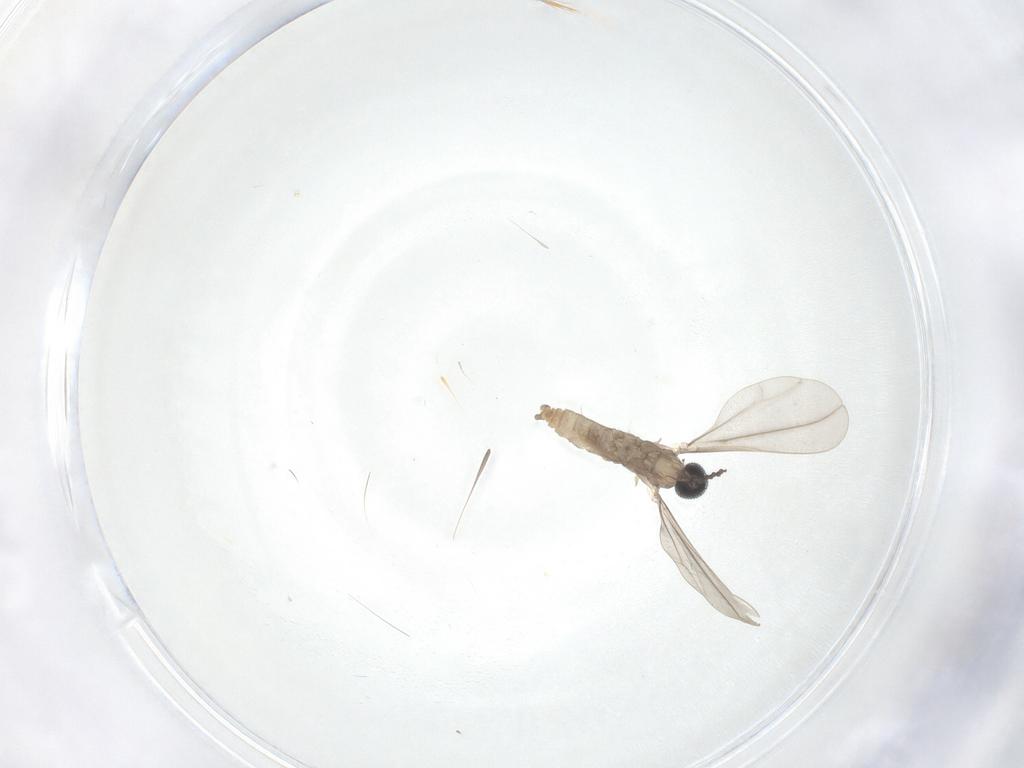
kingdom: Animalia
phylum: Arthropoda
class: Insecta
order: Diptera
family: Cecidomyiidae
